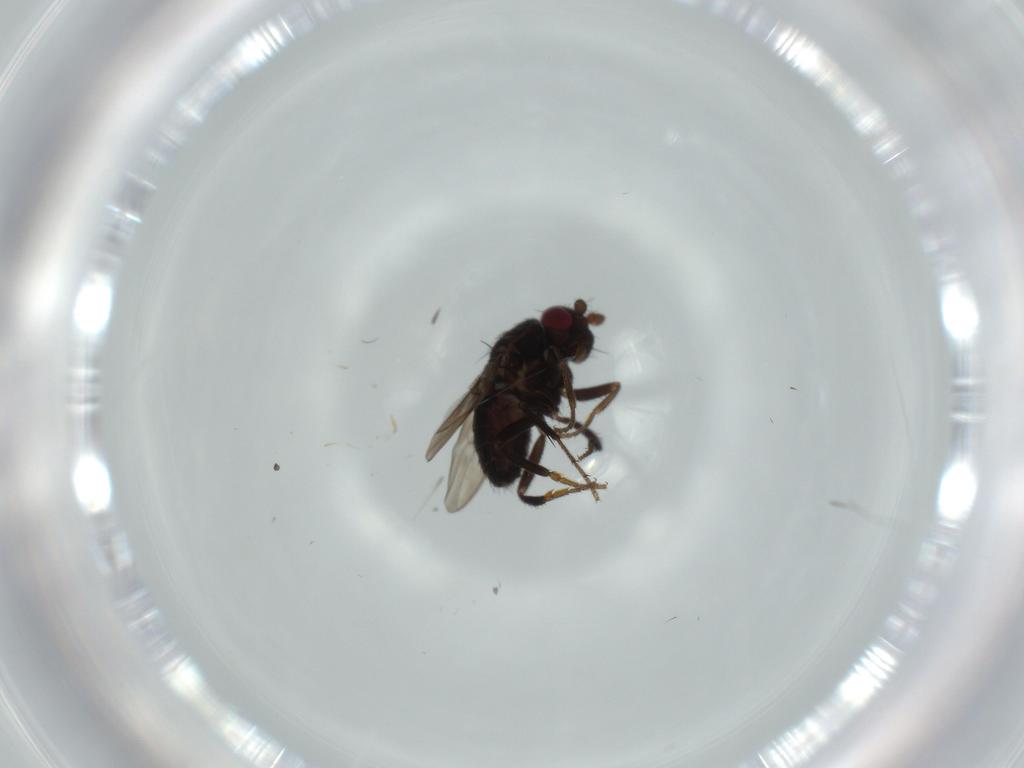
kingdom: Animalia
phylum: Arthropoda
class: Insecta
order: Diptera
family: Sphaeroceridae
